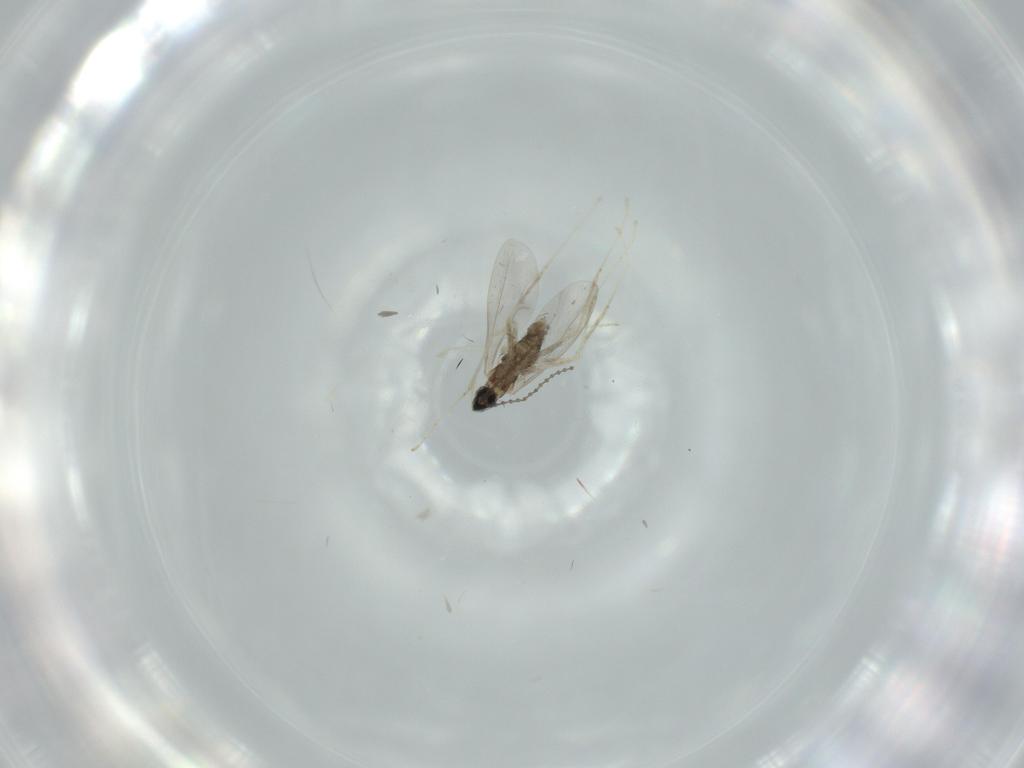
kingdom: Animalia
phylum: Arthropoda
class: Insecta
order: Diptera
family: Cecidomyiidae
